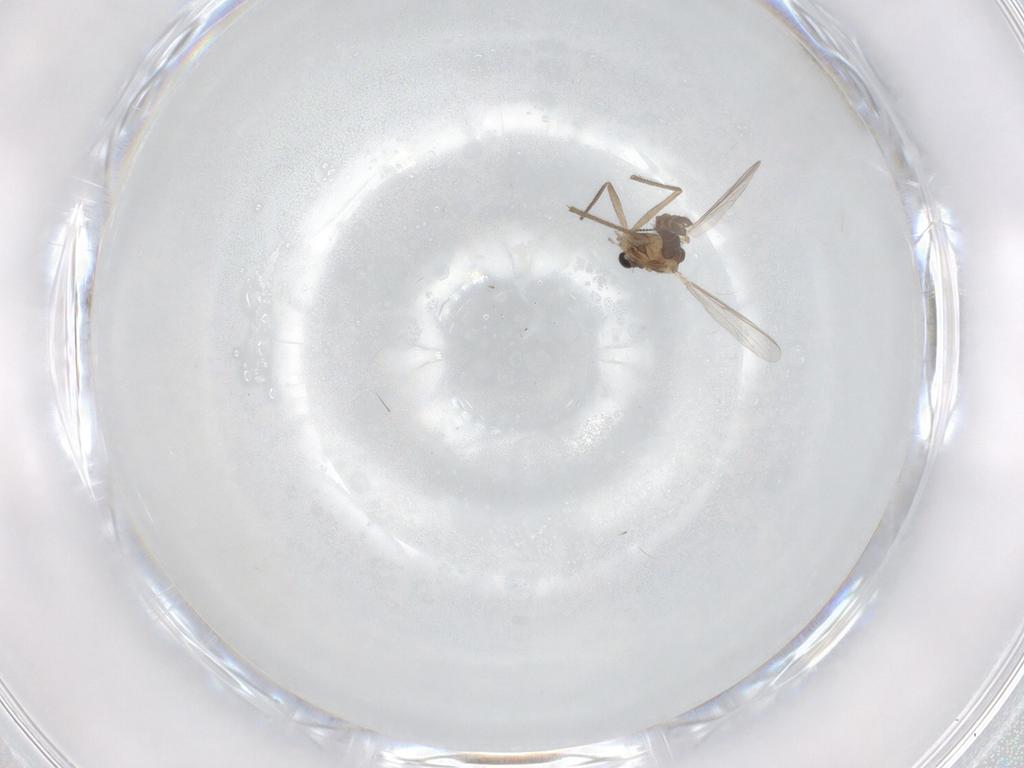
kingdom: Animalia
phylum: Arthropoda
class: Insecta
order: Diptera
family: Chironomidae
